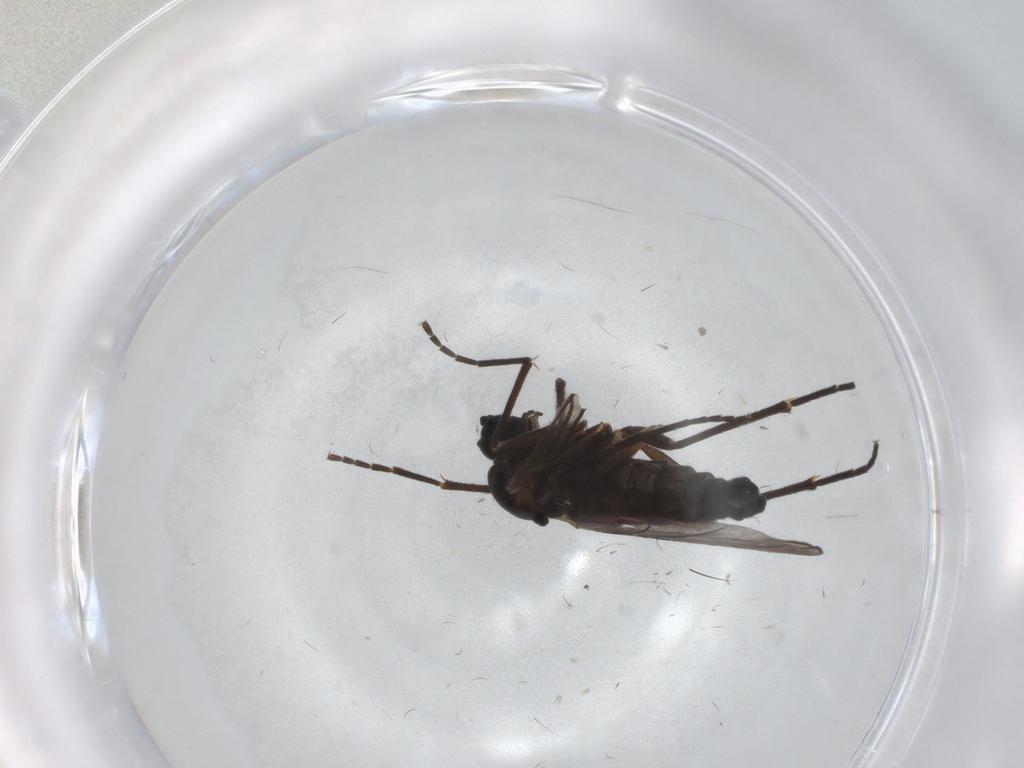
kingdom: Animalia
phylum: Arthropoda
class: Insecta
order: Diptera
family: Chironomidae
